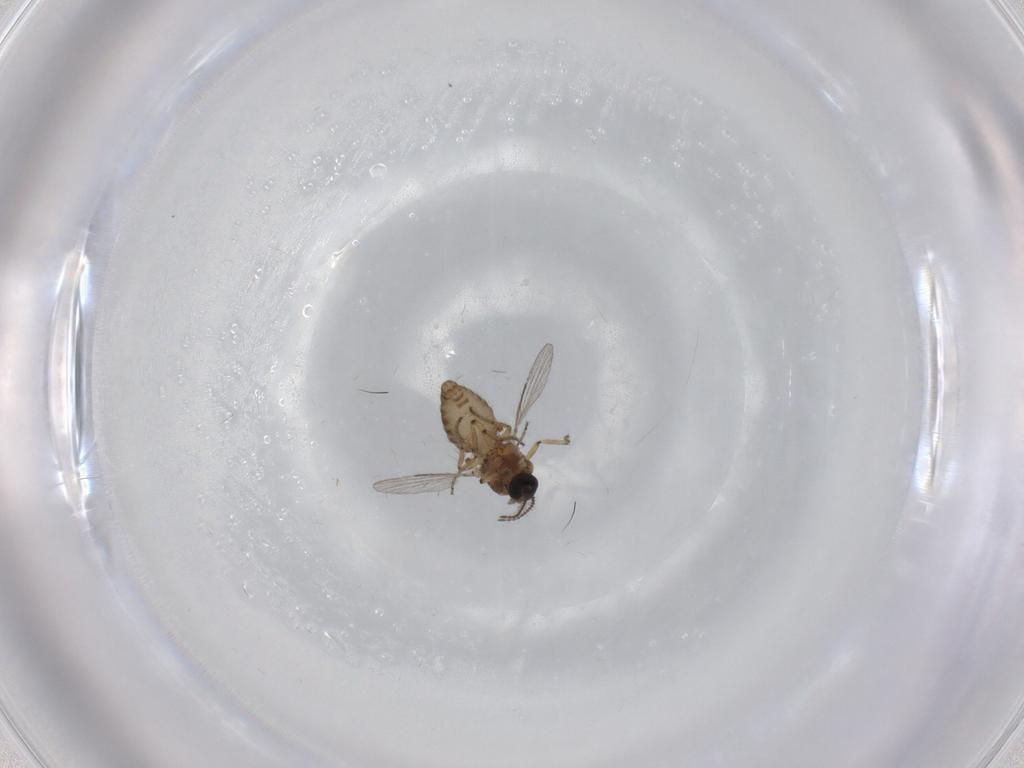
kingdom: Animalia
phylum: Arthropoda
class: Insecta
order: Diptera
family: Ceratopogonidae
